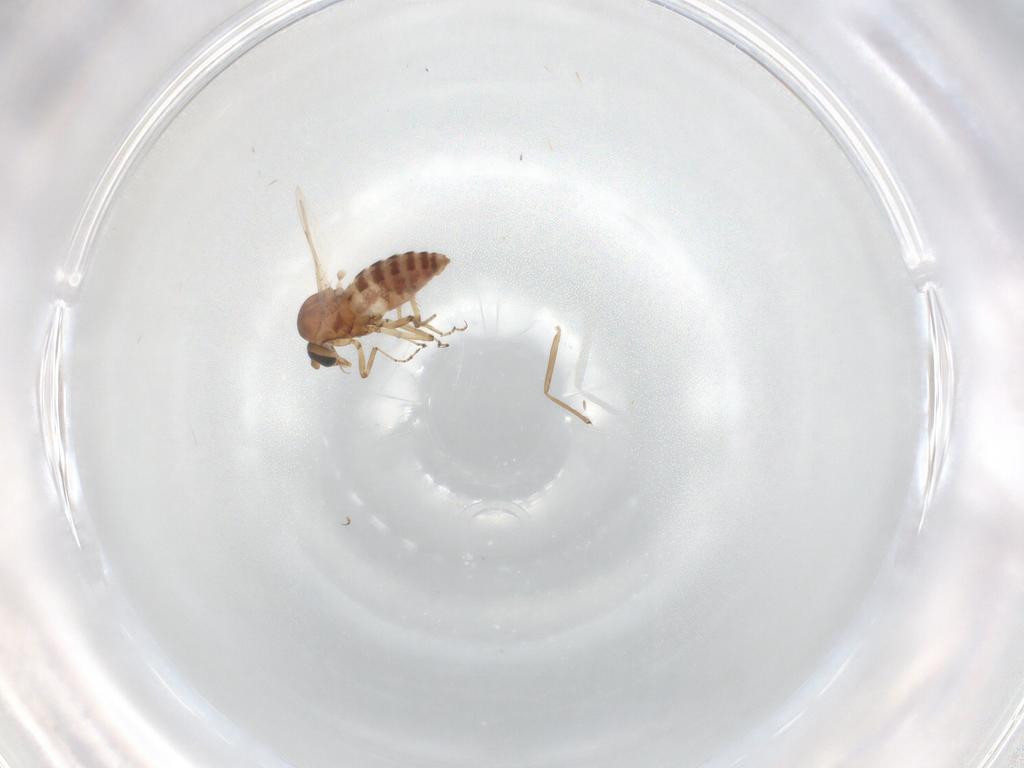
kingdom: Animalia
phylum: Arthropoda
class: Insecta
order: Diptera
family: Ceratopogonidae
